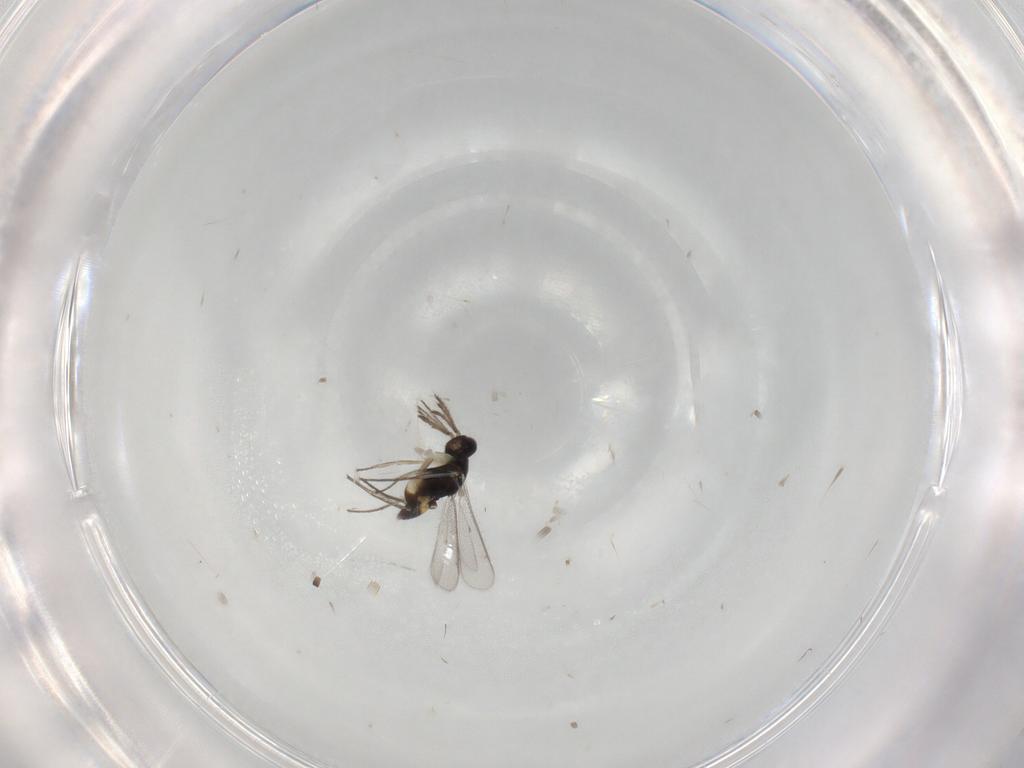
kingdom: Animalia
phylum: Arthropoda
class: Insecta
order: Hymenoptera
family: Eulophidae
